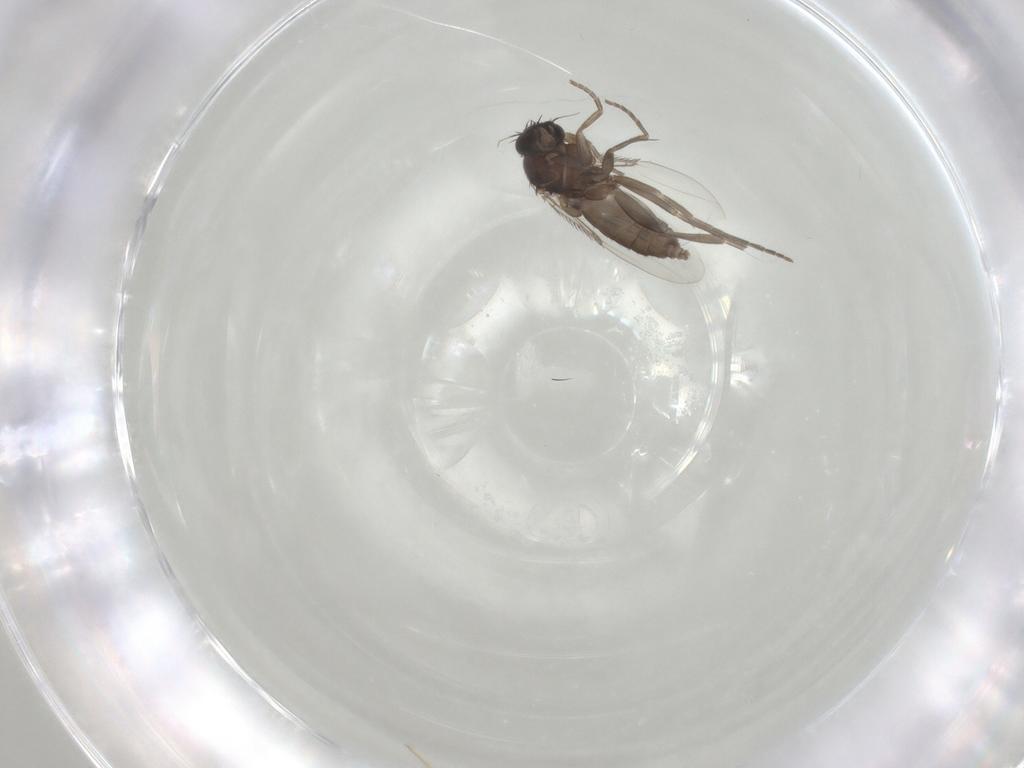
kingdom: Animalia
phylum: Arthropoda
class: Insecta
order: Diptera
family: Phoridae
